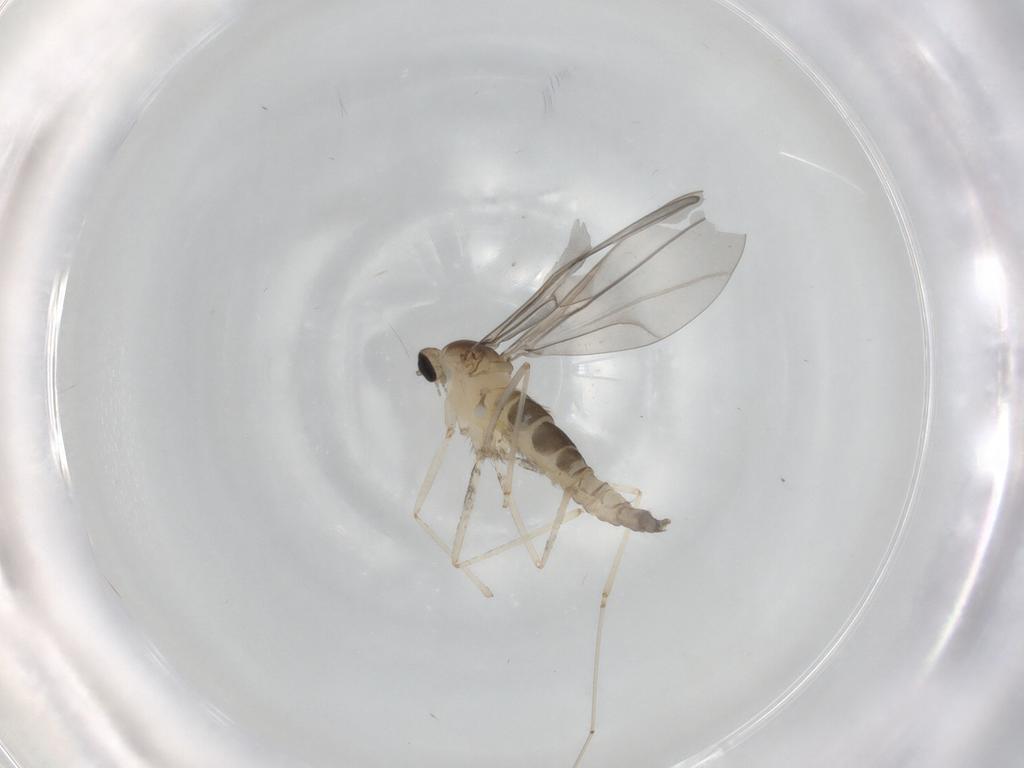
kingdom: Animalia
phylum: Arthropoda
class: Insecta
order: Diptera
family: Cecidomyiidae
